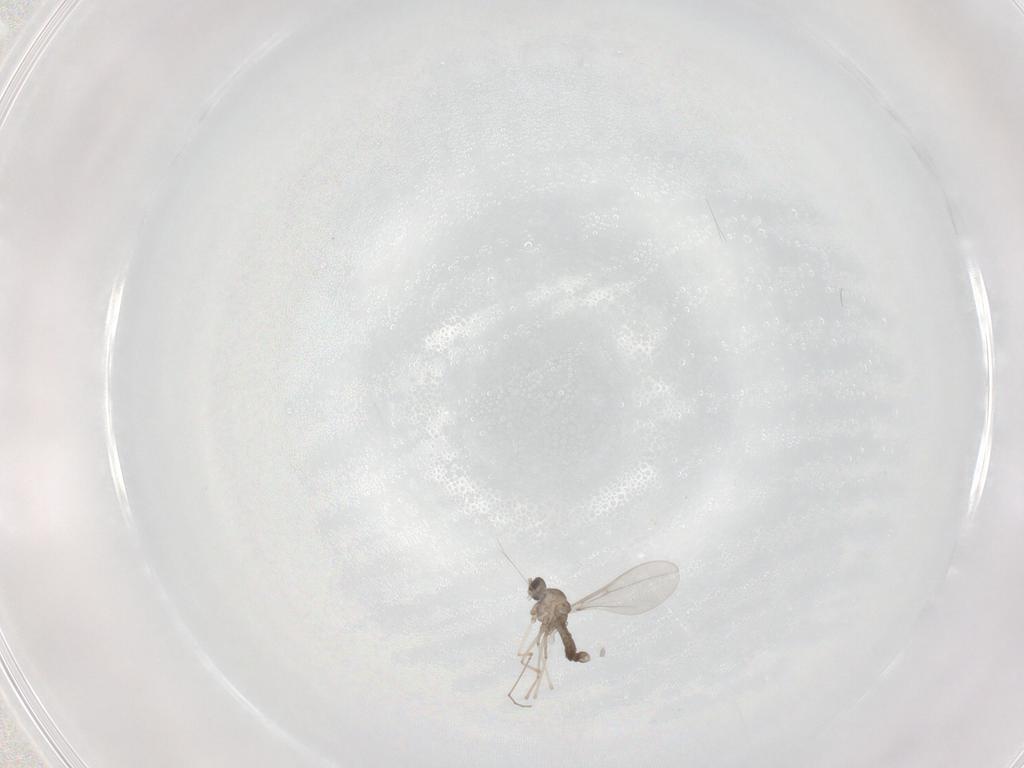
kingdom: Animalia
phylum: Arthropoda
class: Insecta
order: Diptera
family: Cecidomyiidae
